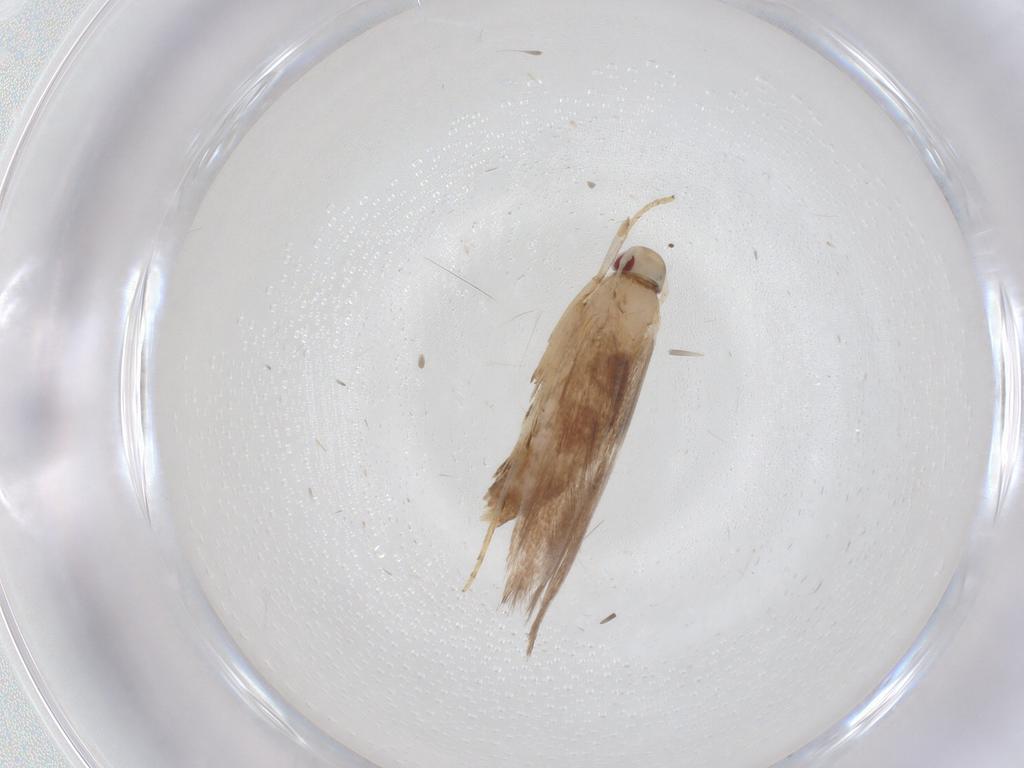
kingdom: Animalia
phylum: Arthropoda
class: Insecta
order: Lepidoptera
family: Cosmopterigidae
